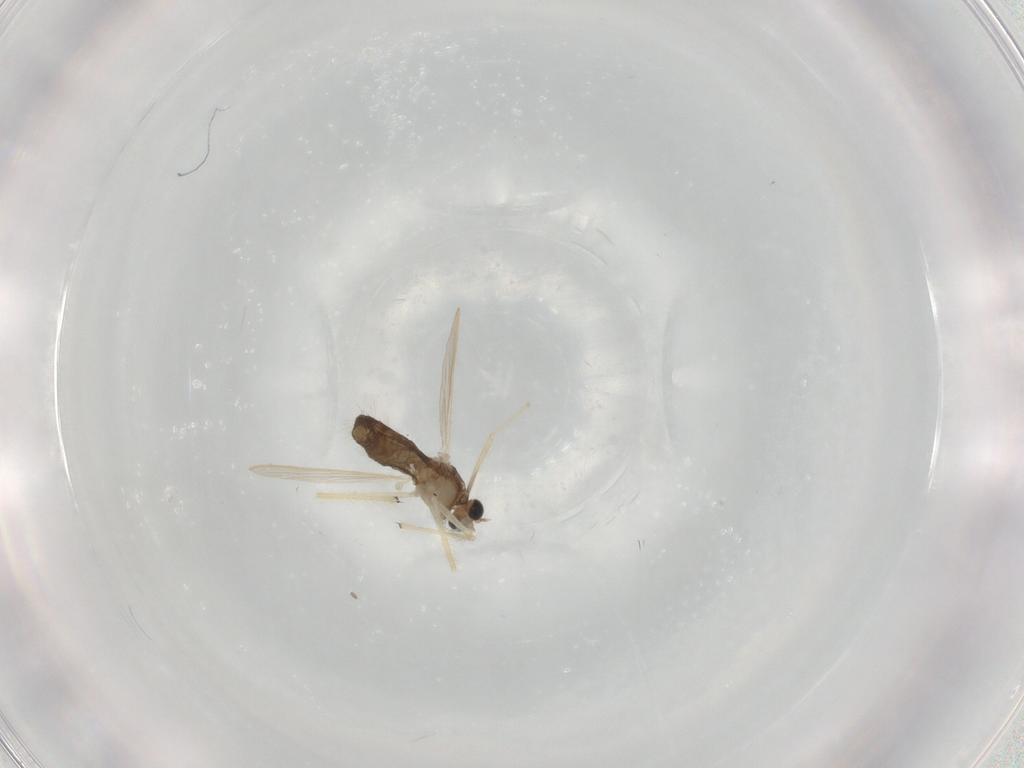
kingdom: Animalia
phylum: Arthropoda
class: Insecta
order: Diptera
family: Chironomidae
